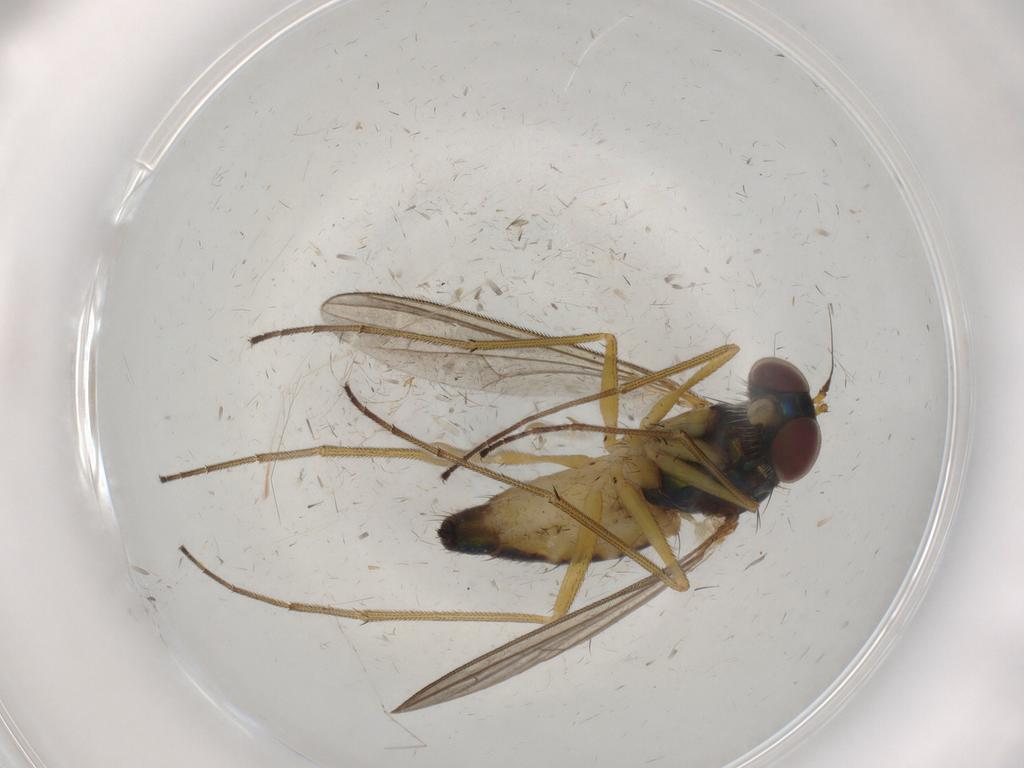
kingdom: Animalia
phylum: Arthropoda
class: Insecta
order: Diptera
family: Dolichopodidae
